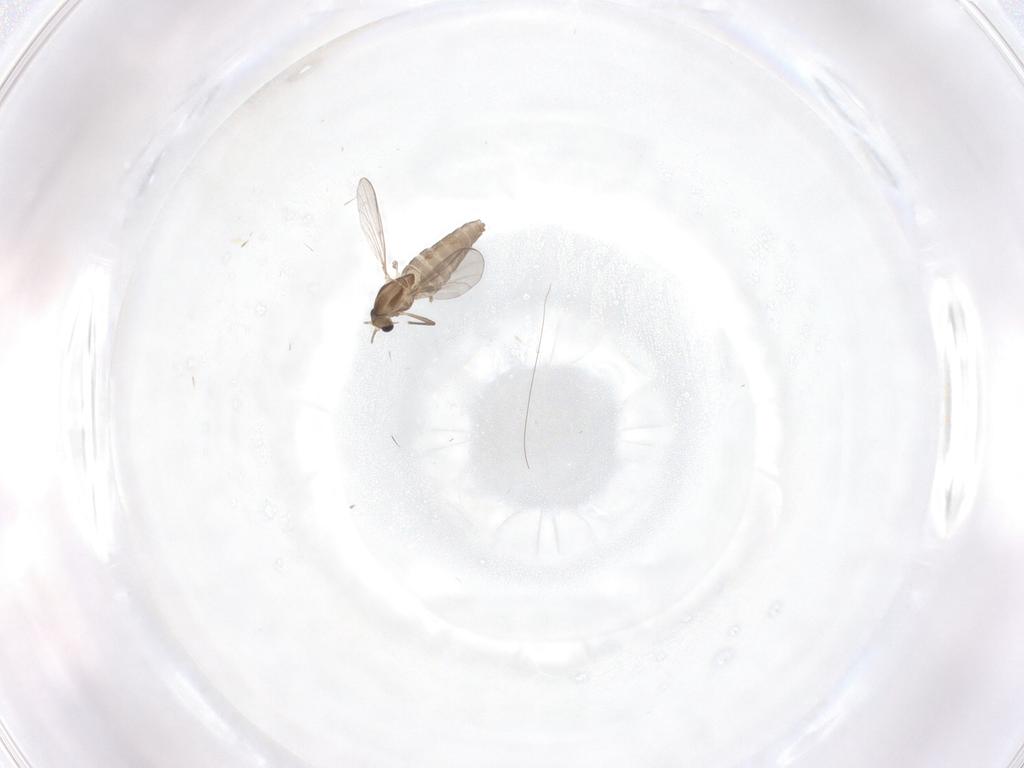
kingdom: Animalia
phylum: Arthropoda
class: Insecta
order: Diptera
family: Chironomidae
